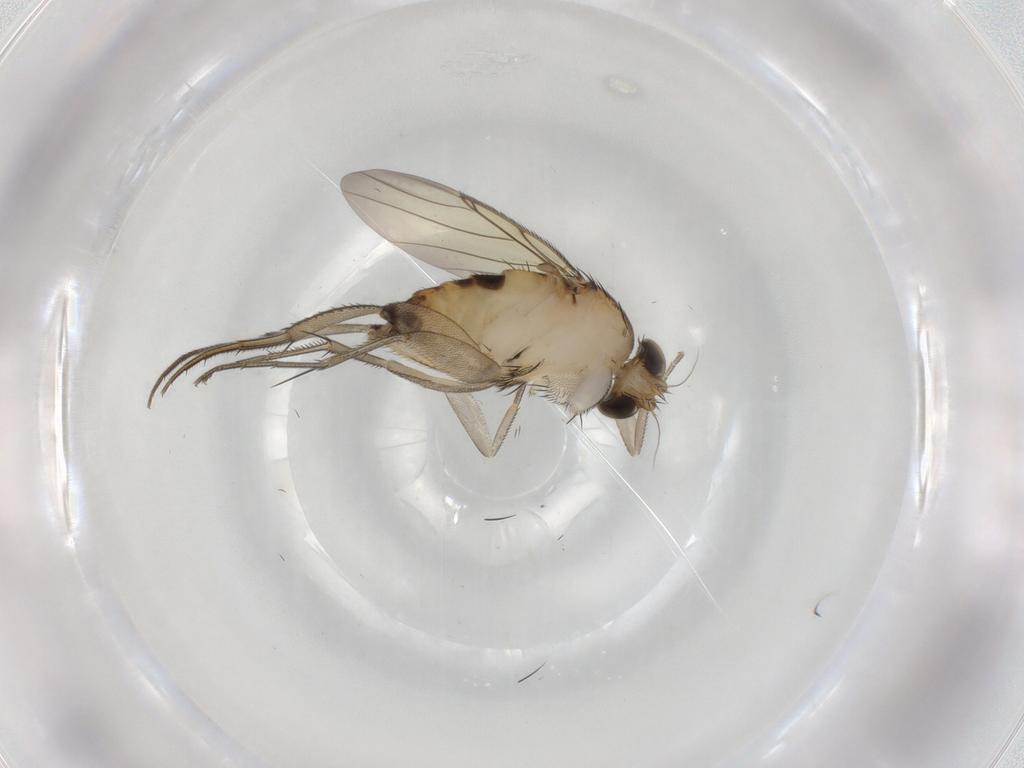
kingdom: Animalia
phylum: Arthropoda
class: Insecta
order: Diptera
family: Phoridae
